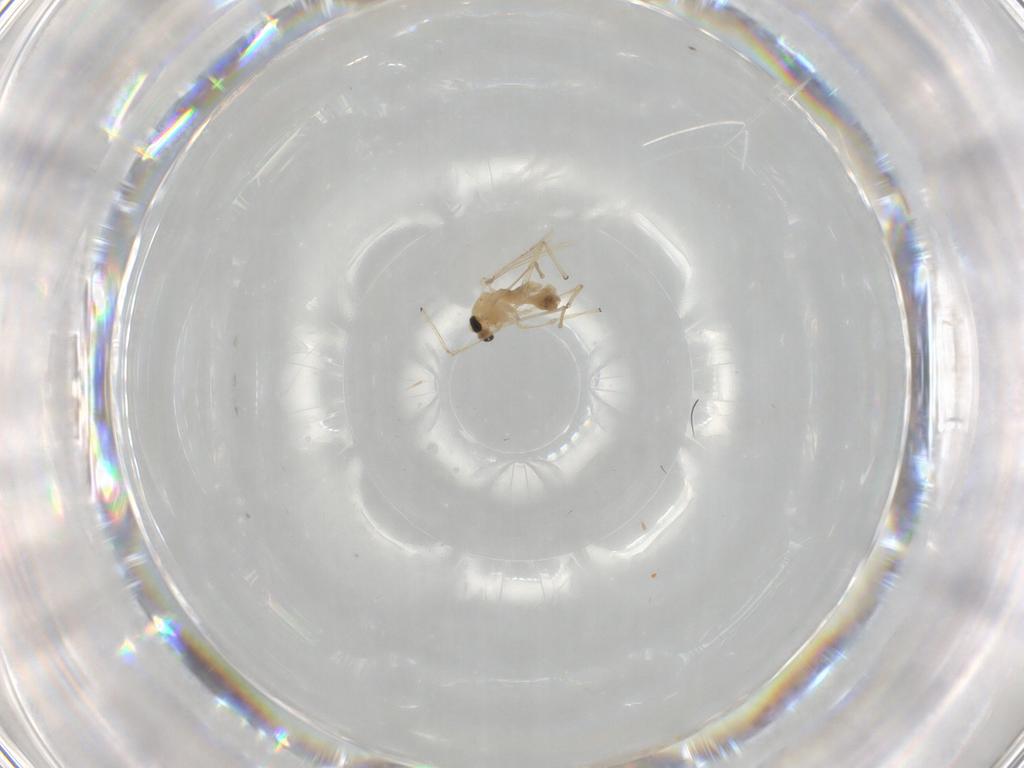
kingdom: Animalia
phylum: Arthropoda
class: Insecta
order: Diptera
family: Chironomidae
